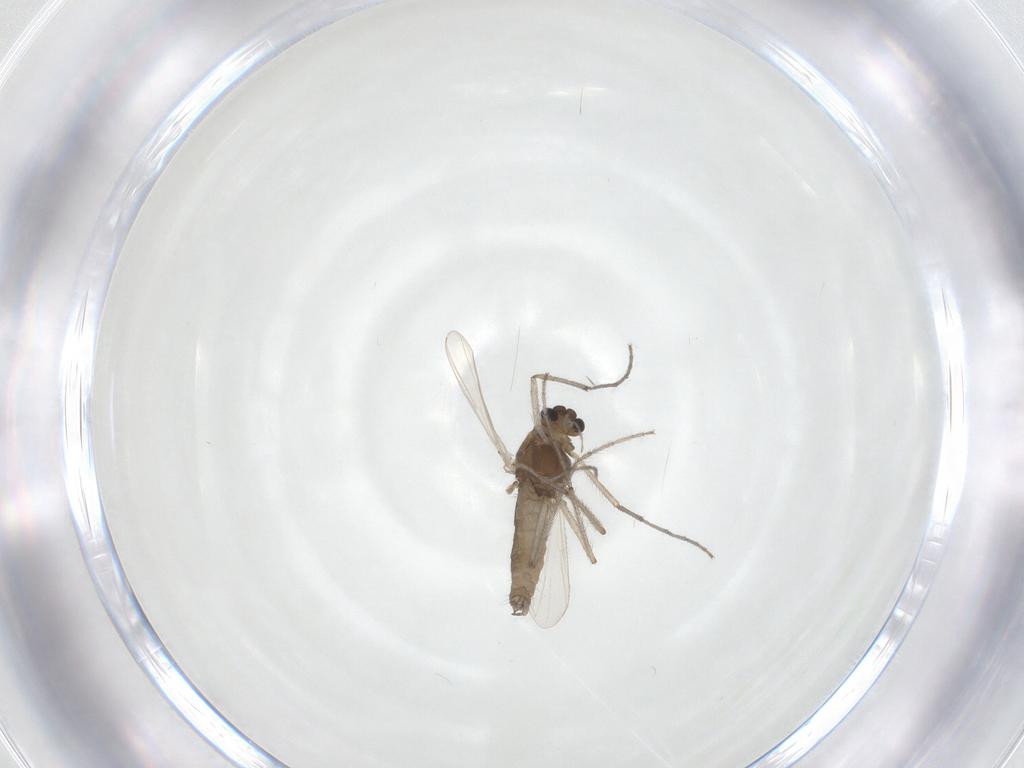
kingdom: Animalia
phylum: Arthropoda
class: Insecta
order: Diptera
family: Chironomidae
